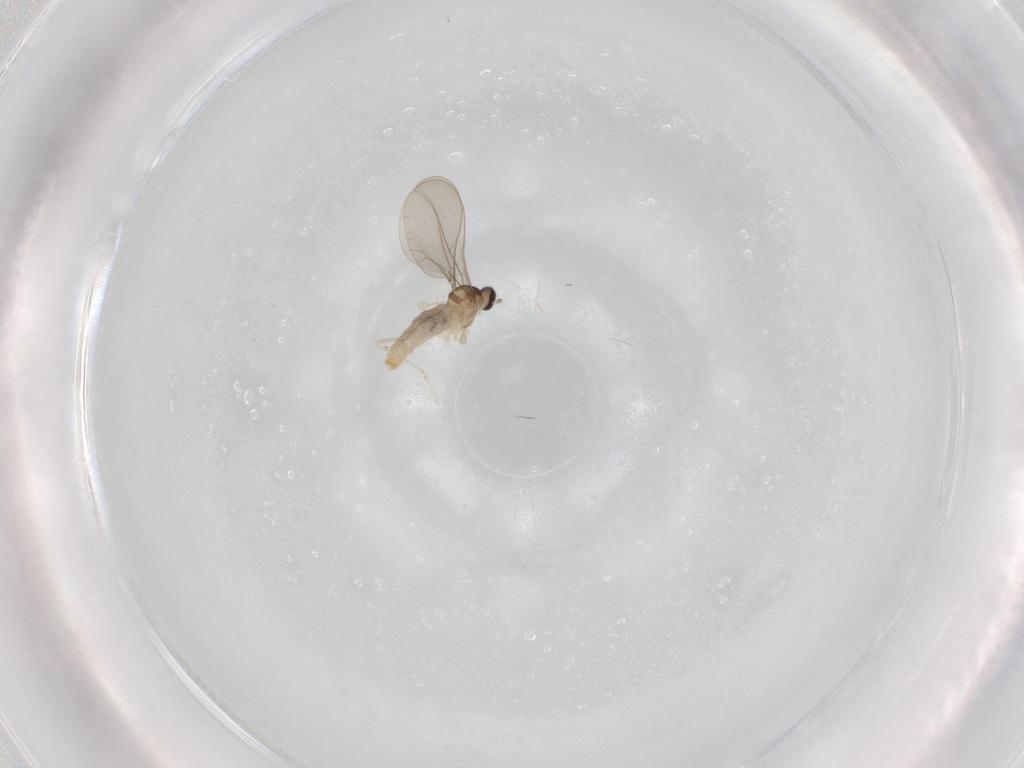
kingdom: Animalia
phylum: Arthropoda
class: Insecta
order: Diptera
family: Cecidomyiidae
